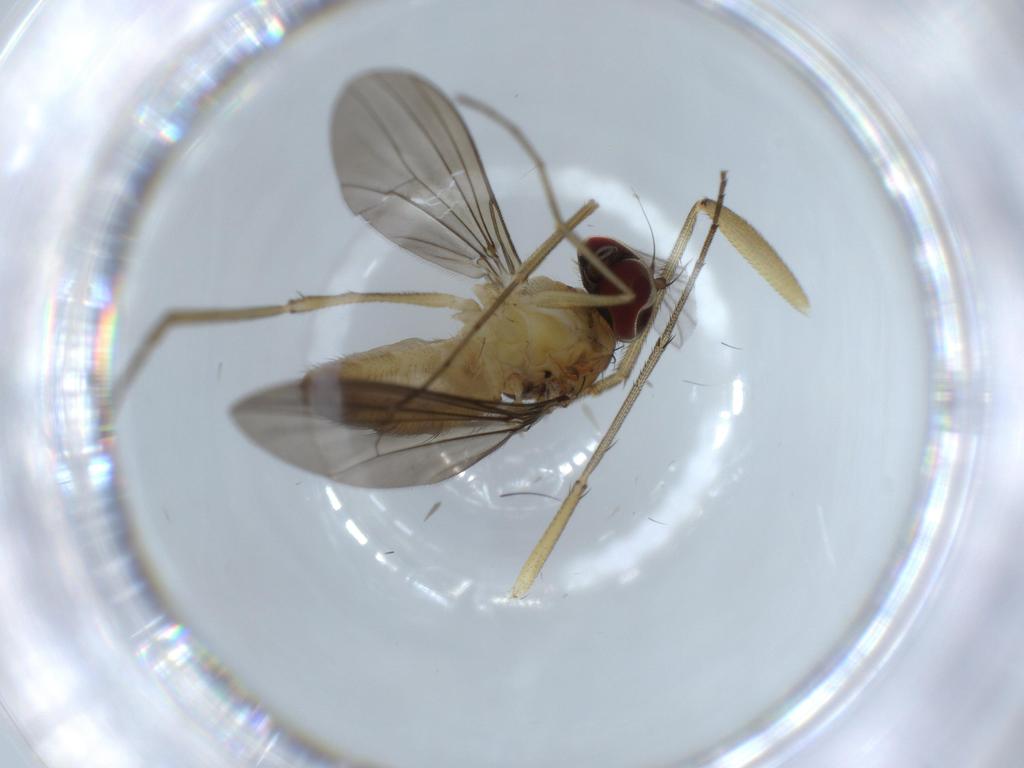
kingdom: Animalia
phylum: Arthropoda
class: Insecta
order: Diptera
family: Dolichopodidae
